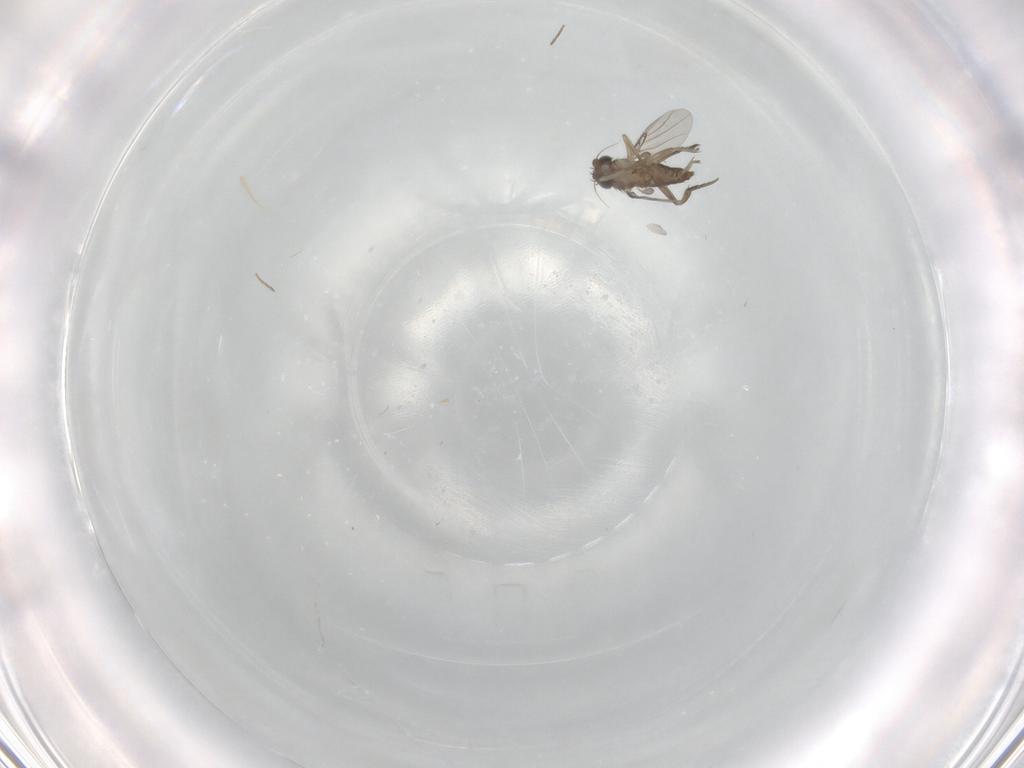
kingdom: Animalia
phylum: Arthropoda
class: Insecta
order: Diptera
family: Phoridae
